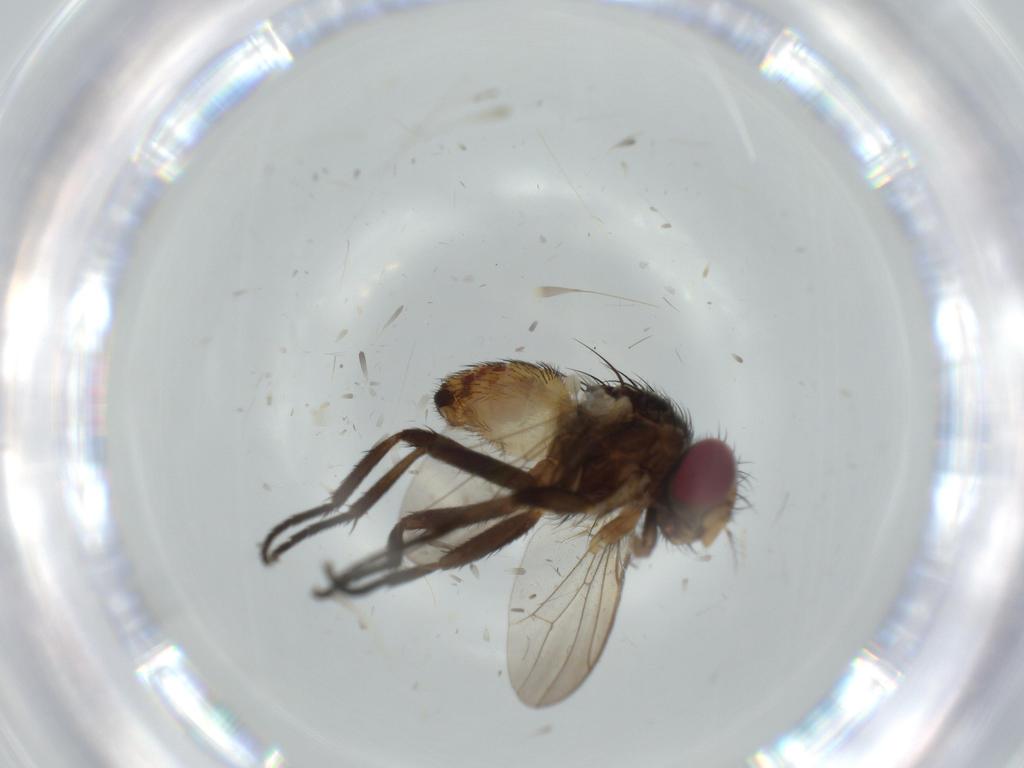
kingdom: Animalia
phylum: Arthropoda
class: Insecta
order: Diptera
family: Anthomyiidae
